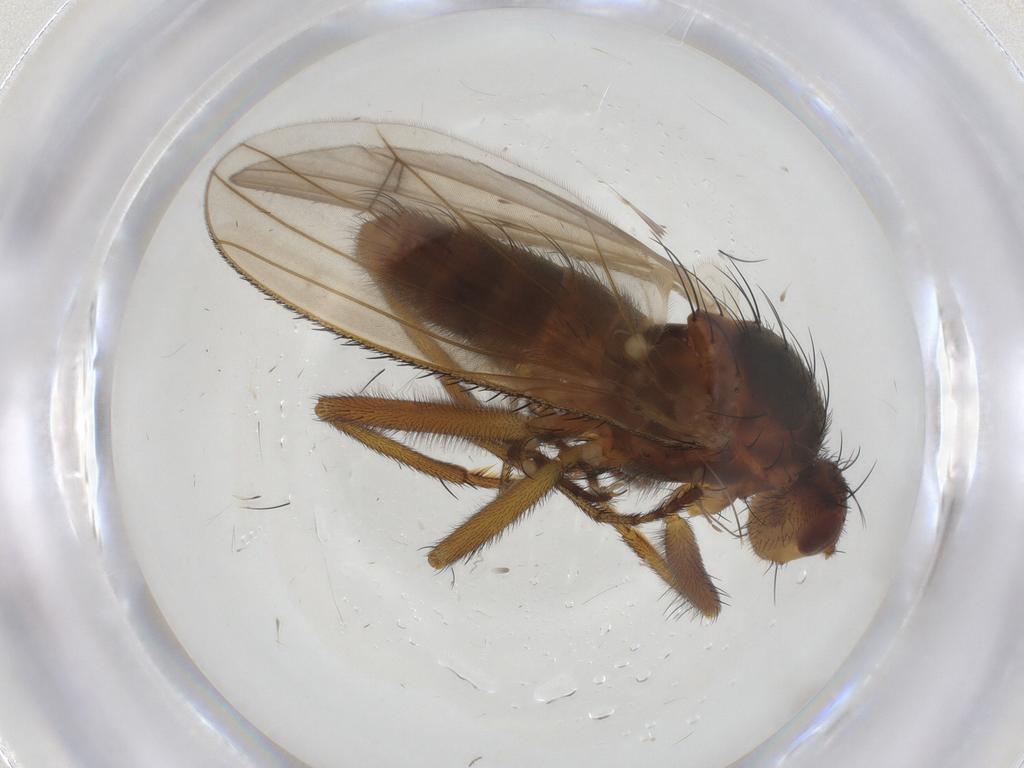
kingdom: Animalia
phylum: Arthropoda
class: Insecta
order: Diptera
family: Heleomyzidae
